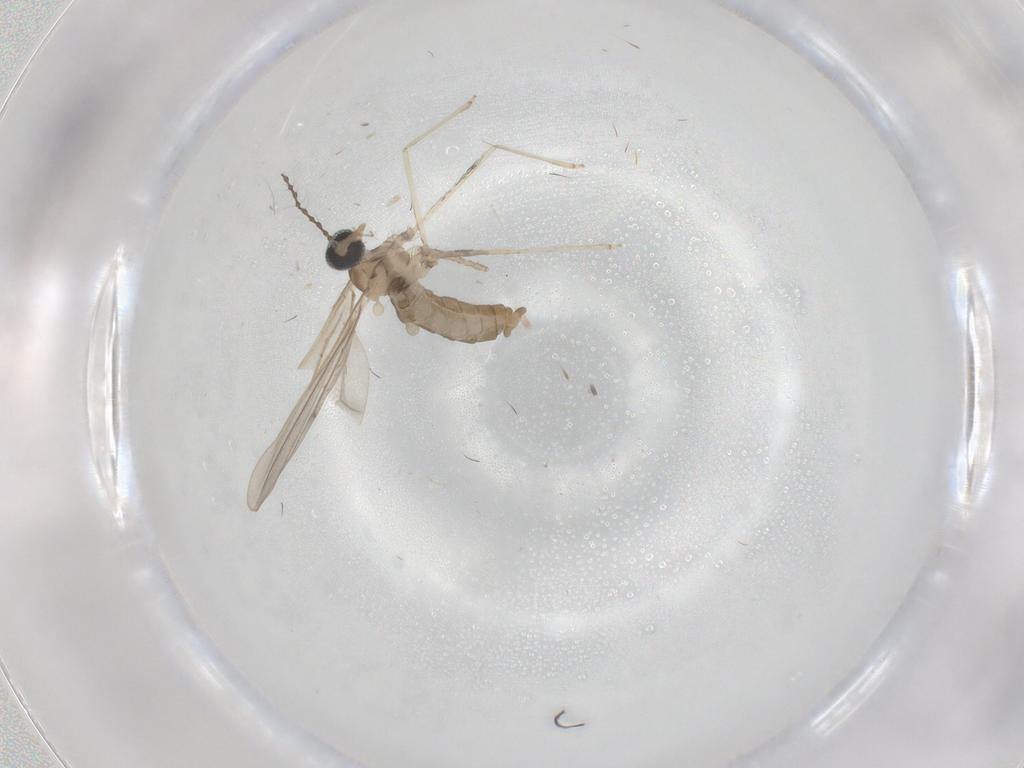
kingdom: Animalia
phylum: Arthropoda
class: Insecta
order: Diptera
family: Cecidomyiidae
